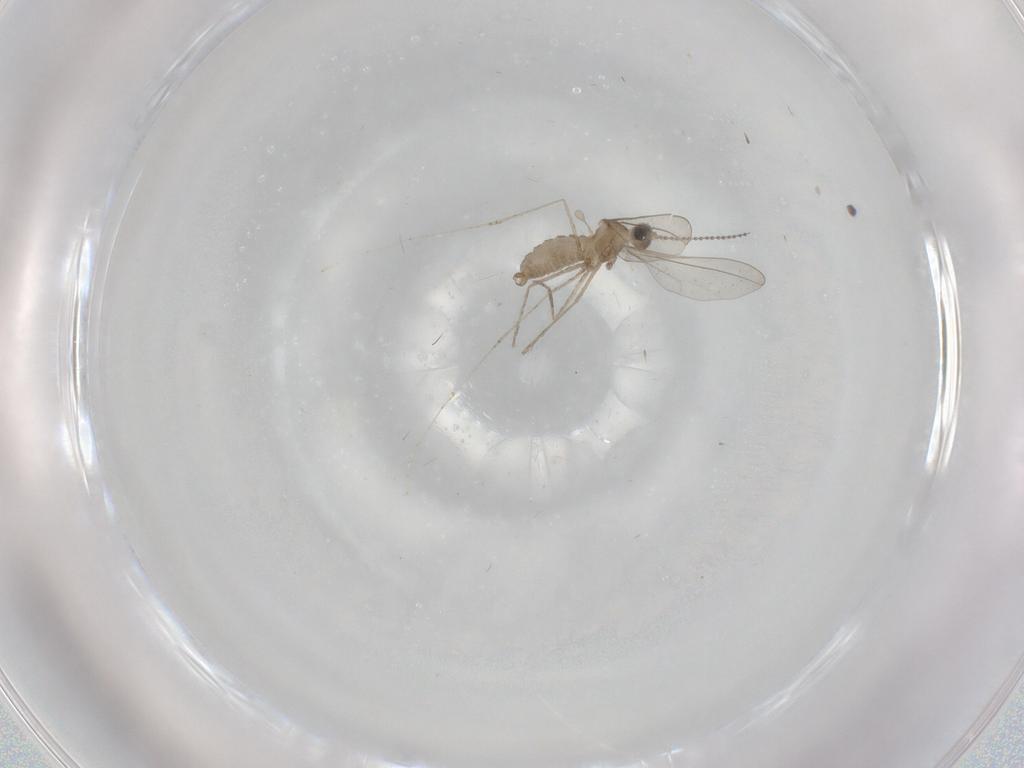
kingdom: Animalia
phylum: Arthropoda
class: Insecta
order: Diptera
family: Cecidomyiidae
